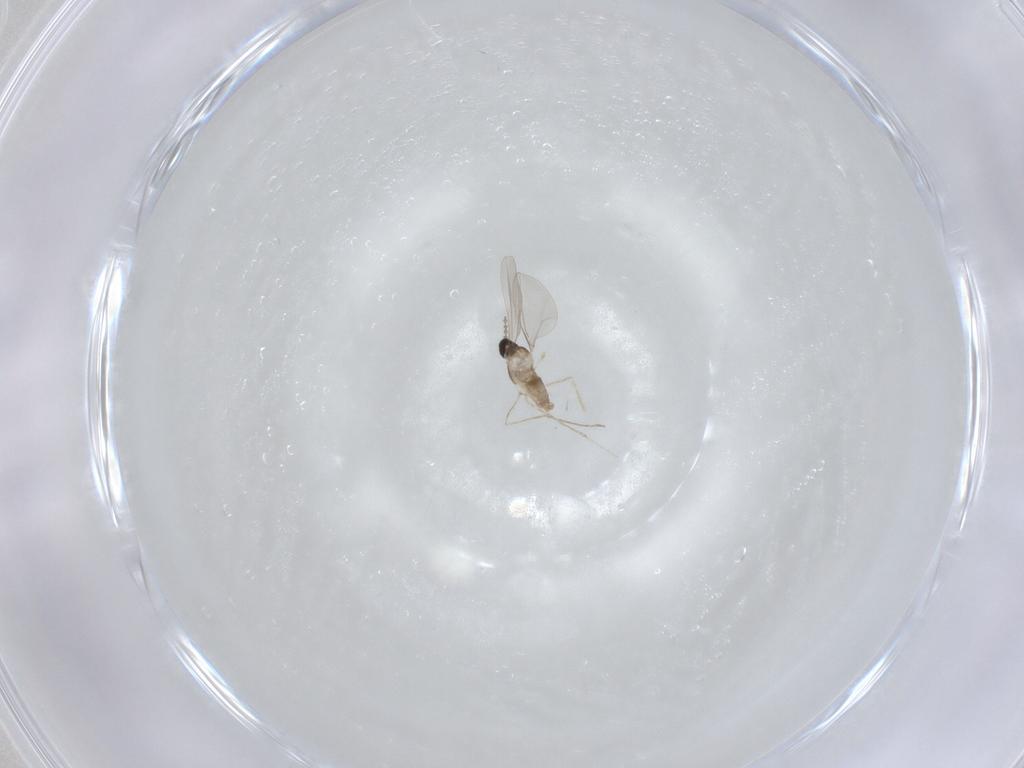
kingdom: Animalia
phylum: Arthropoda
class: Insecta
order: Diptera
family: Cecidomyiidae
